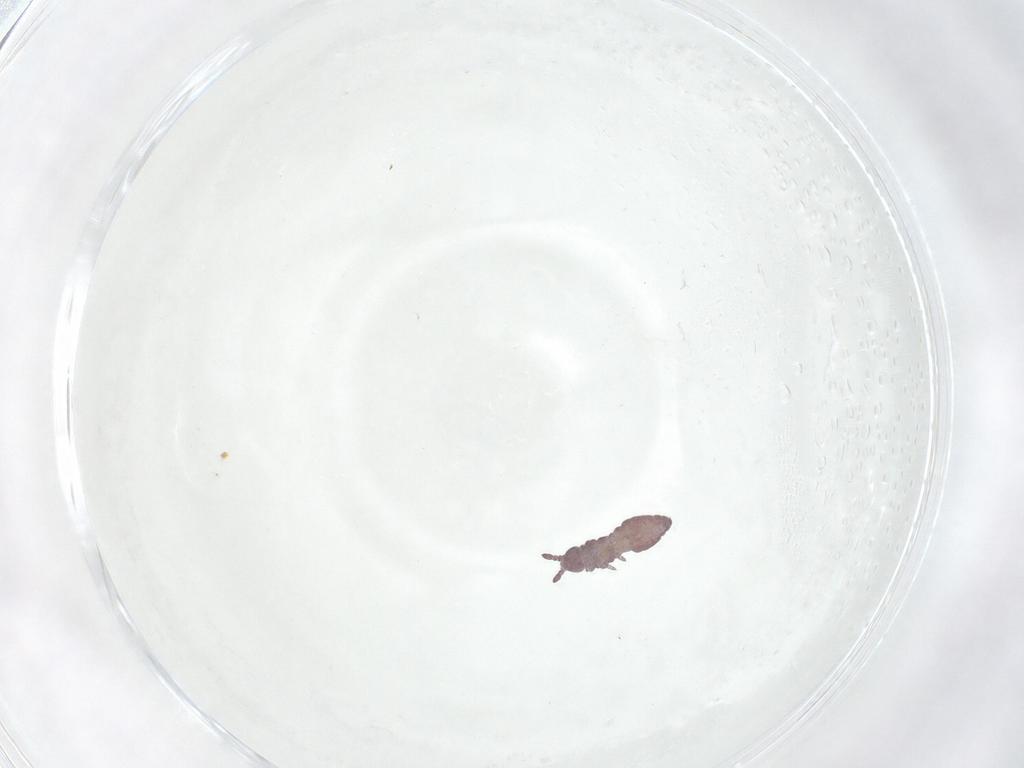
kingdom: Animalia
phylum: Arthropoda
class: Collembola
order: Poduromorpha
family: Hypogastruridae
